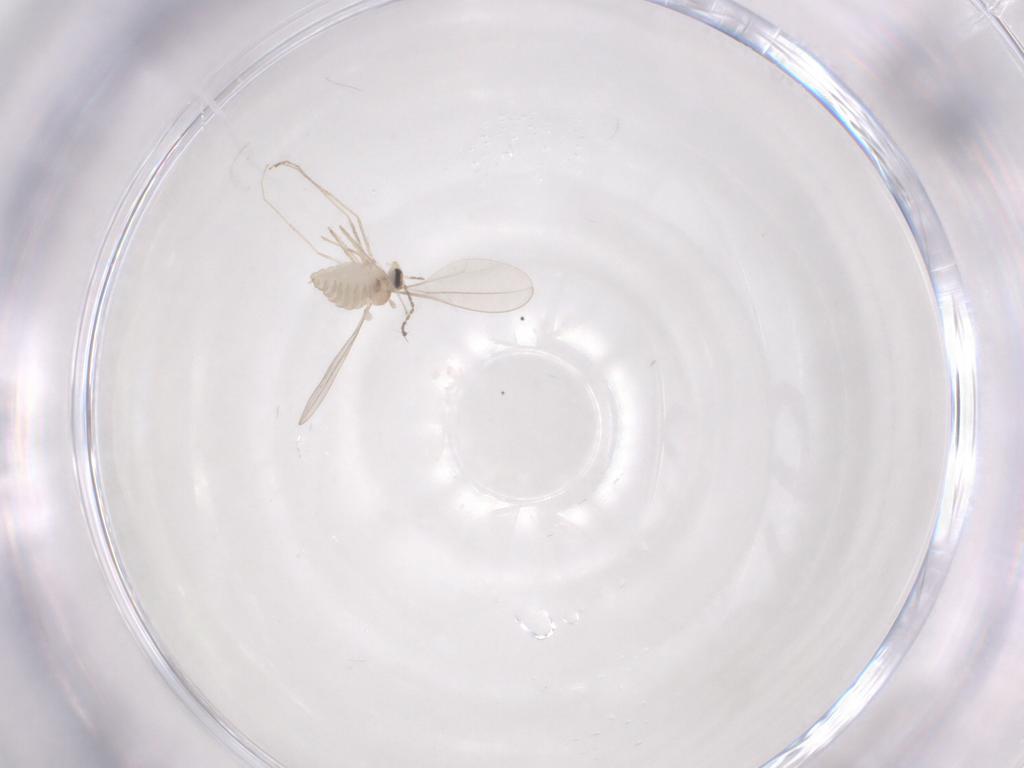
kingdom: Animalia
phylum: Arthropoda
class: Insecta
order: Diptera
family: Cecidomyiidae
